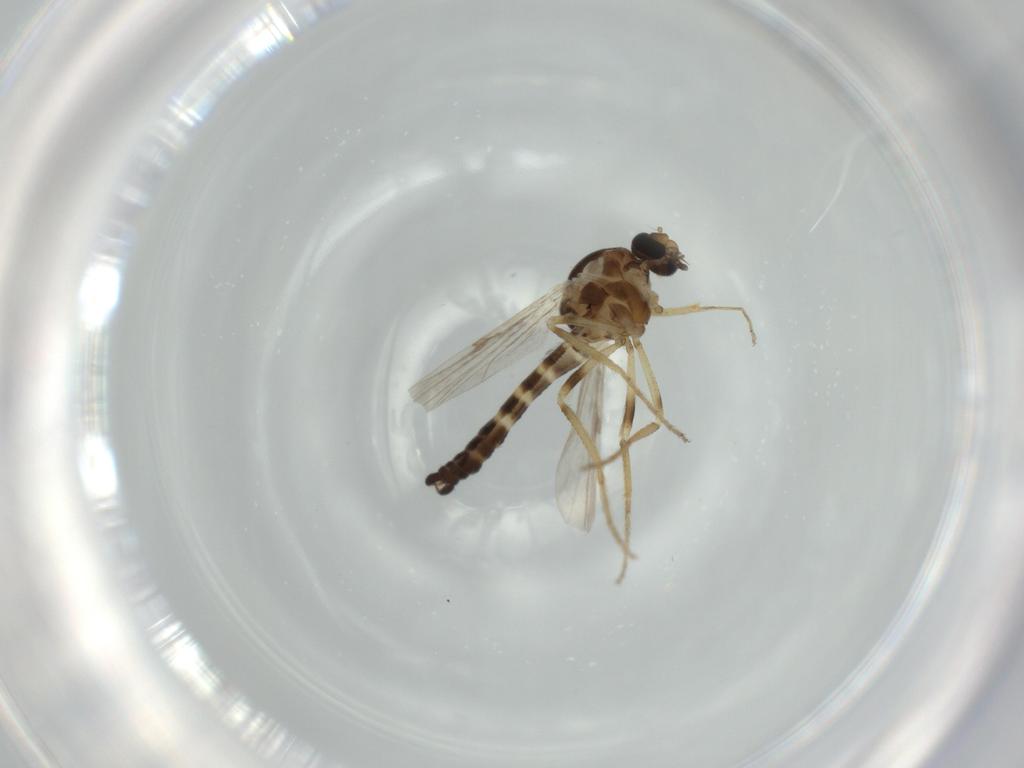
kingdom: Animalia
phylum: Arthropoda
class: Insecta
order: Diptera
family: Ceratopogonidae
